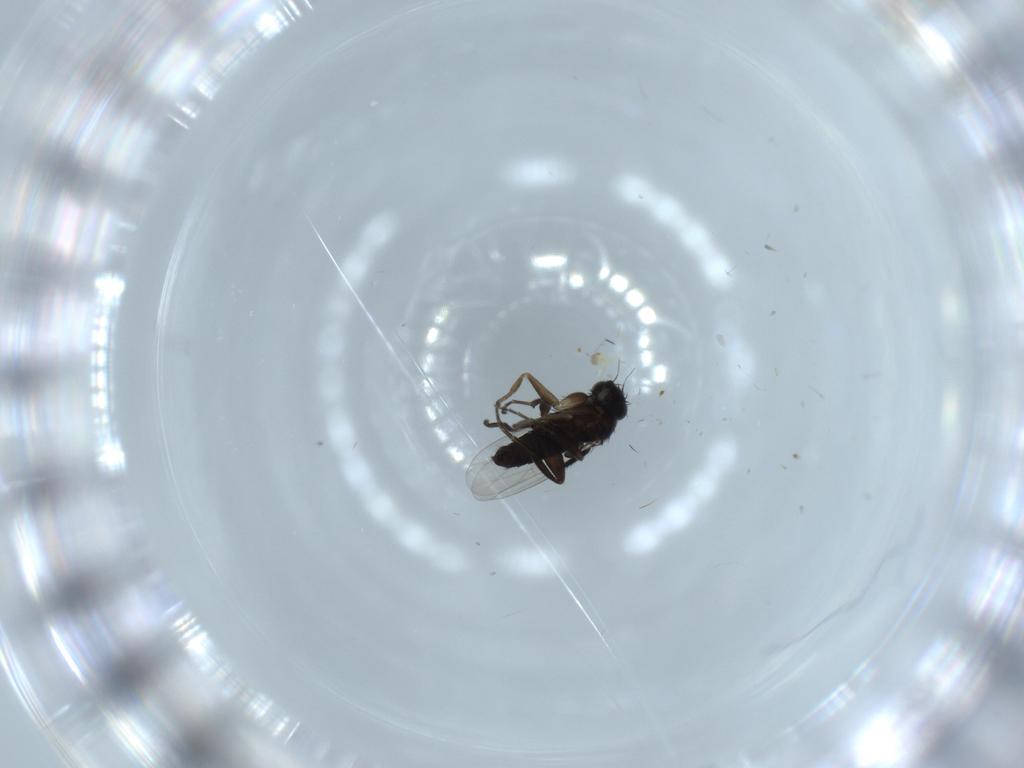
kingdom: Animalia
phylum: Arthropoda
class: Insecta
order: Diptera
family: Phoridae
